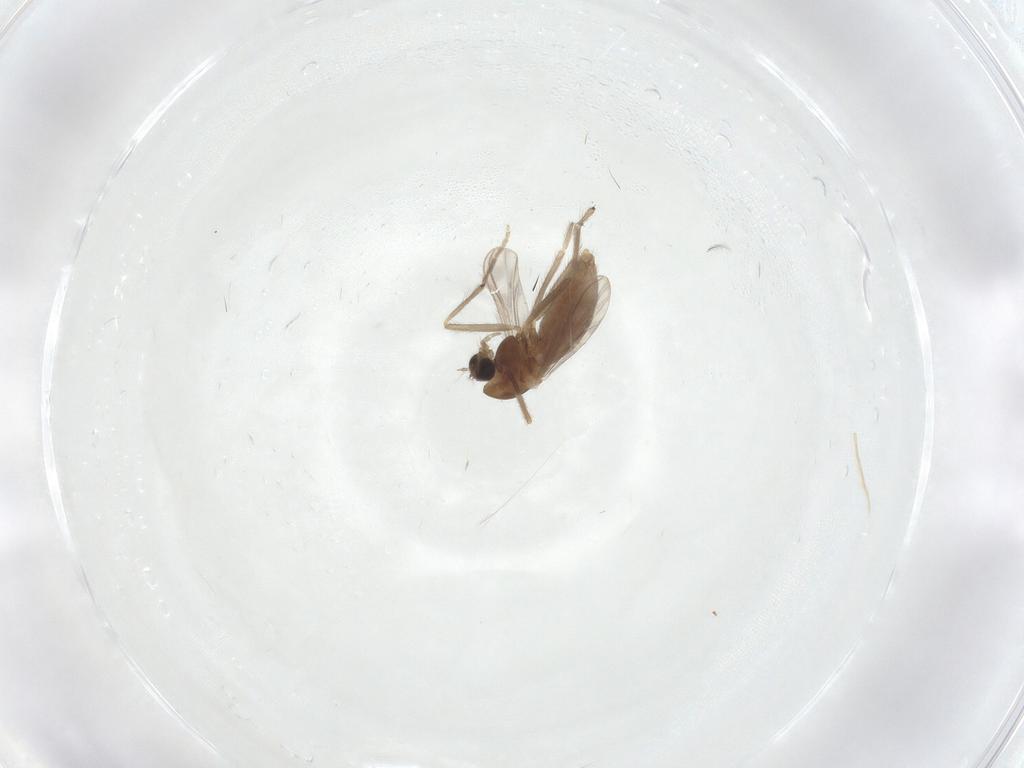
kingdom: Animalia
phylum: Arthropoda
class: Insecta
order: Diptera
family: Chironomidae
